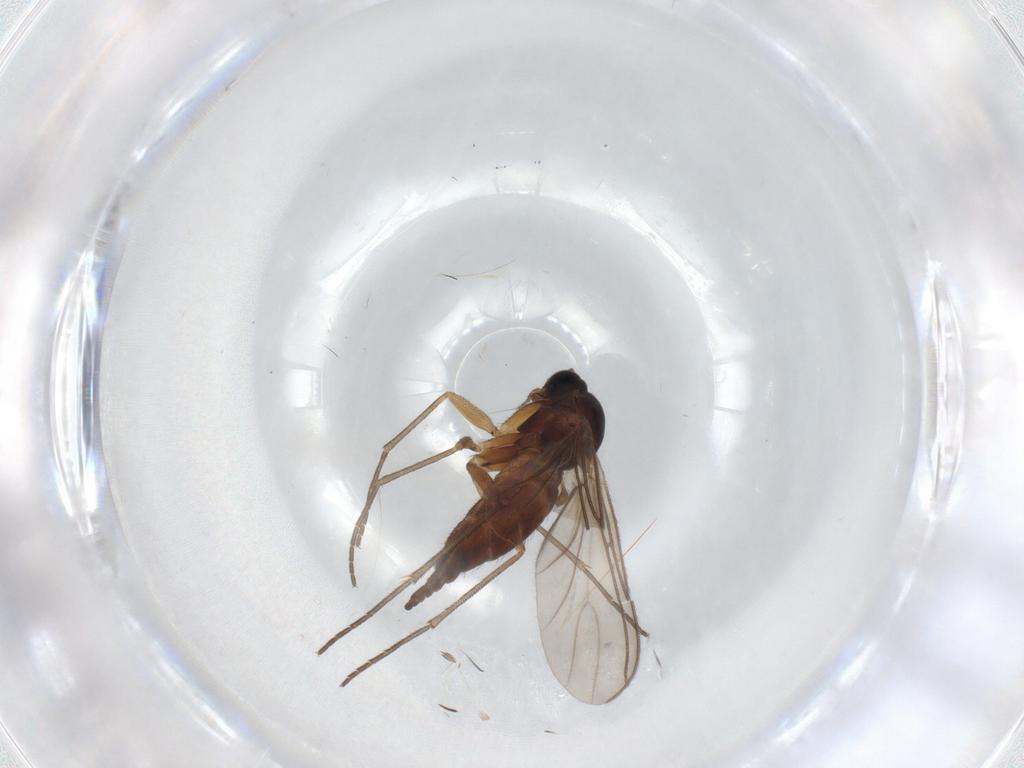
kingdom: Animalia
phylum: Arthropoda
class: Insecta
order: Diptera
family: Sciaridae
